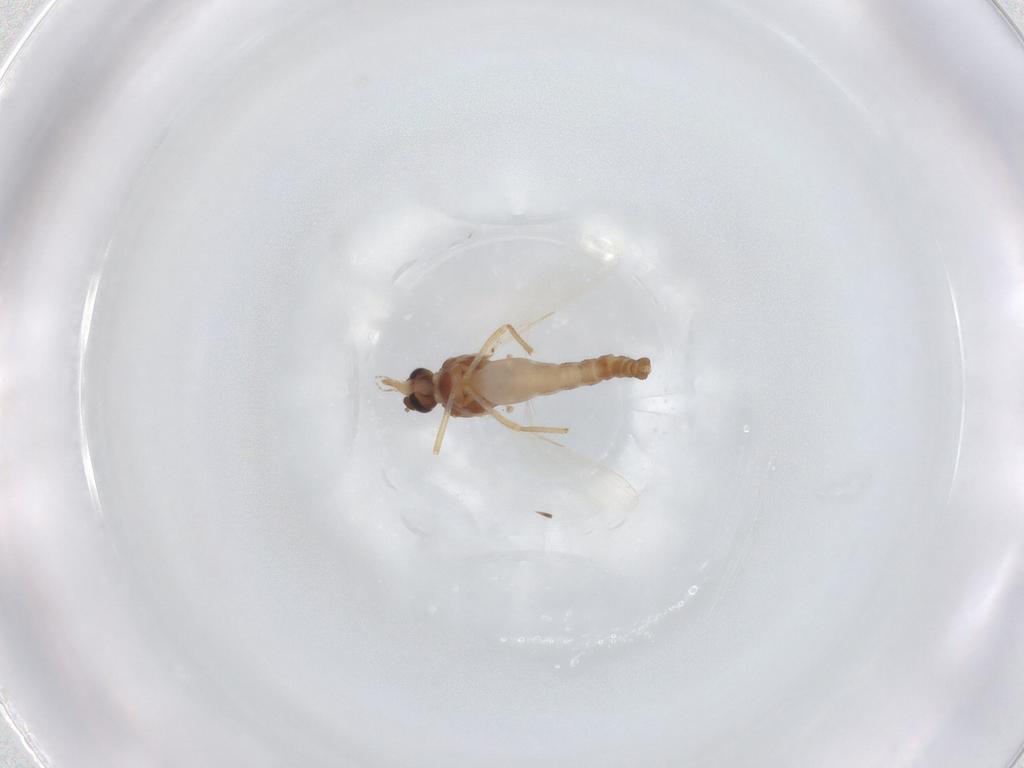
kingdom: Animalia
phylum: Arthropoda
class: Insecta
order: Diptera
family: Ceratopogonidae
